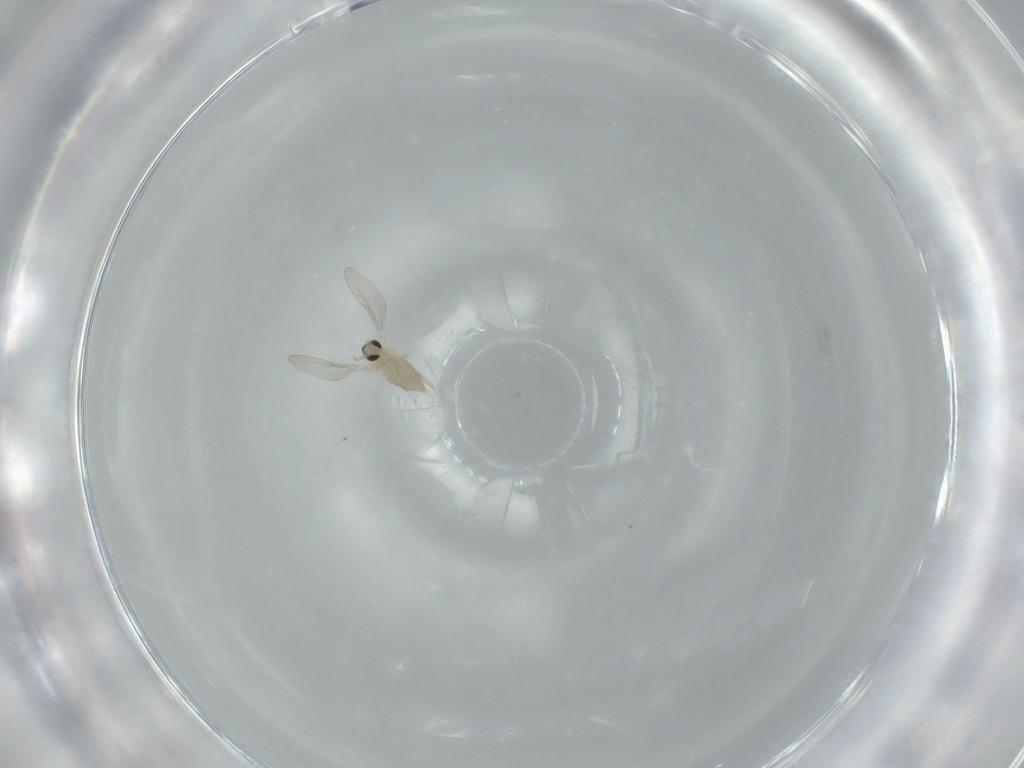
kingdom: Animalia
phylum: Arthropoda
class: Insecta
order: Diptera
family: Cecidomyiidae
